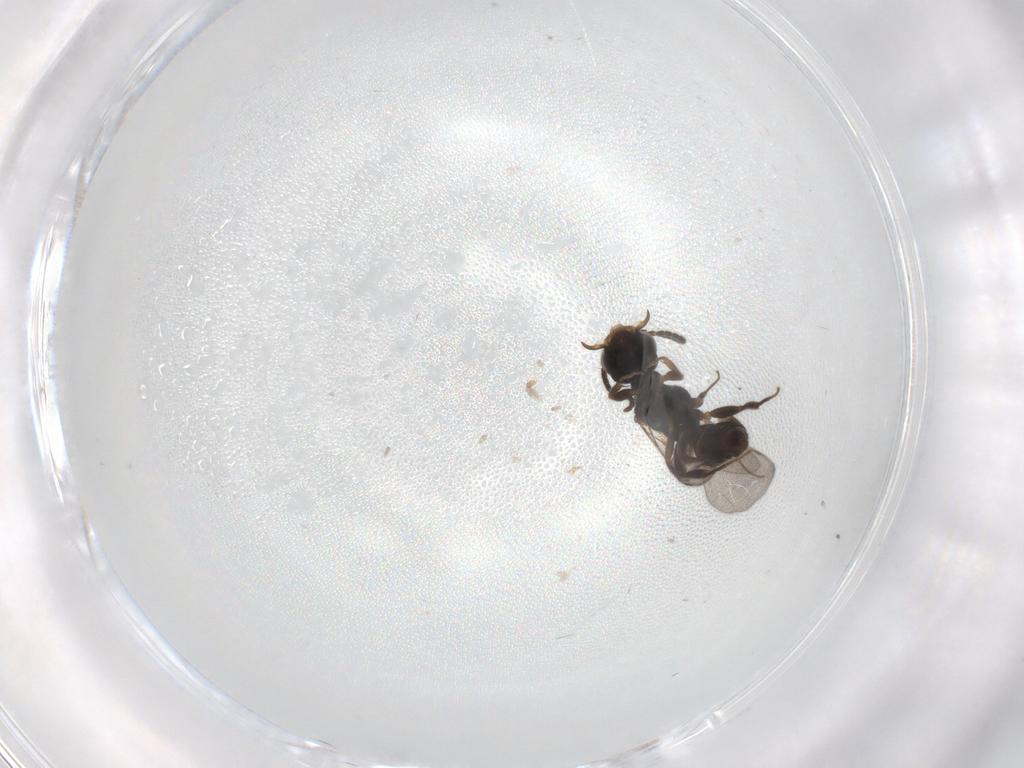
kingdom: Animalia
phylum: Arthropoda
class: Insecta
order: Hymenoptera
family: Bethylidae
